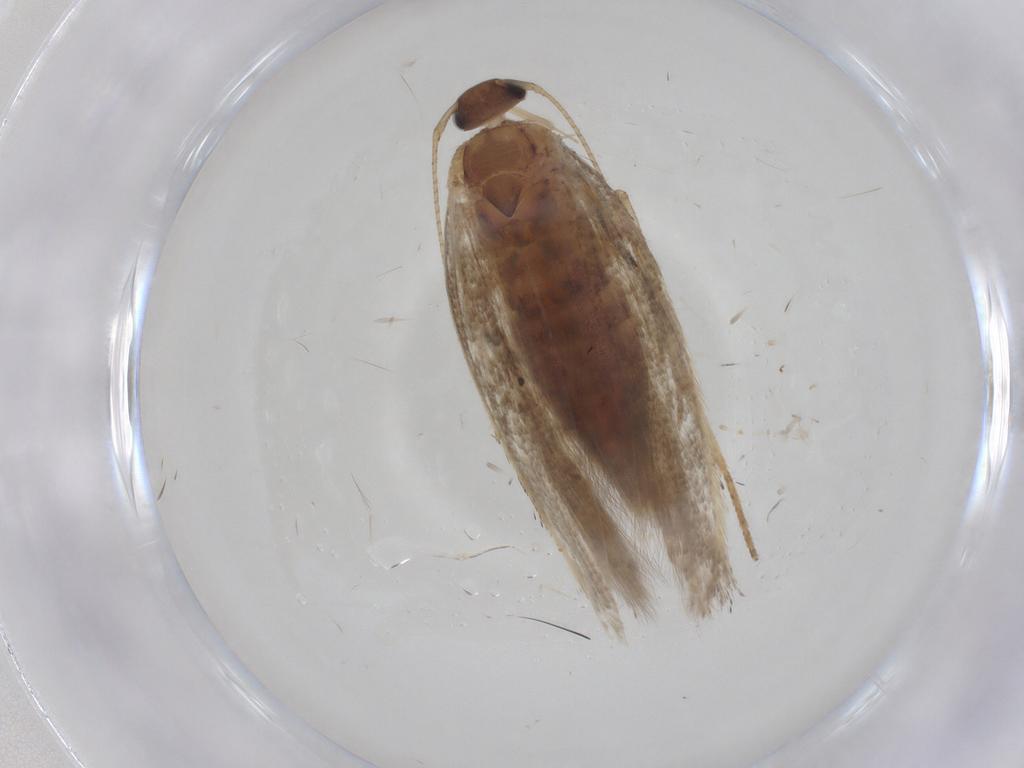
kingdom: Animalia
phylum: Arthropoda
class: Insecta
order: Lepidoptera
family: Gelechiidae
